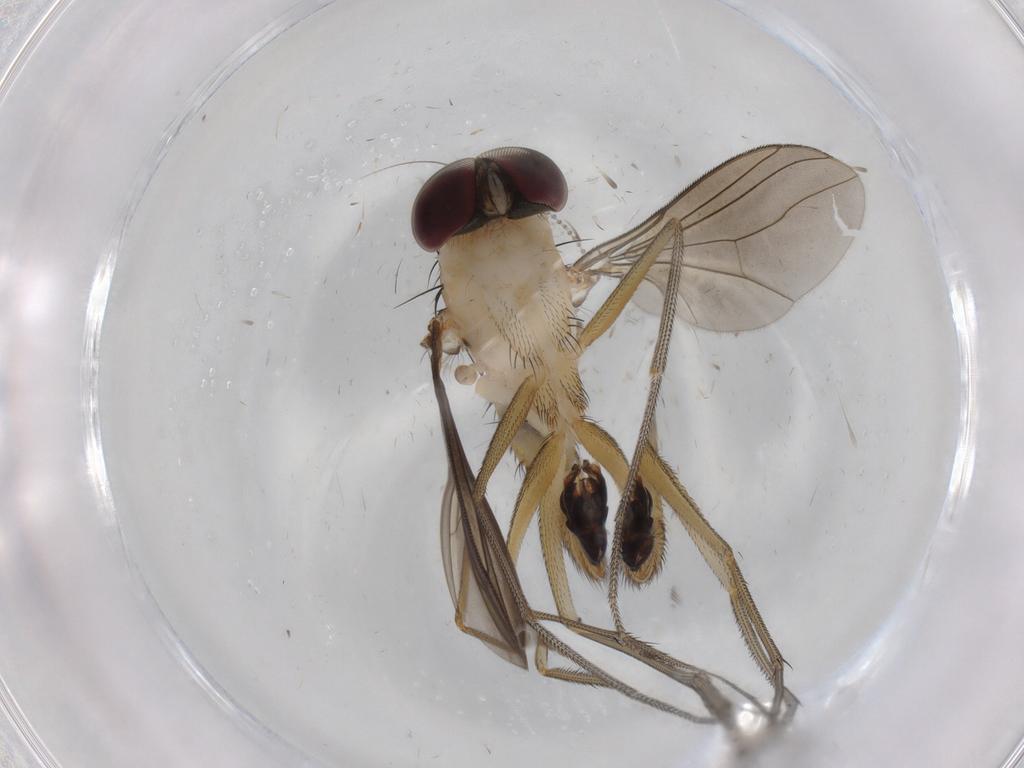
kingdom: Animalia
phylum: Arthropoda
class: Insecta
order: Diptera
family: Dolichopodidae
